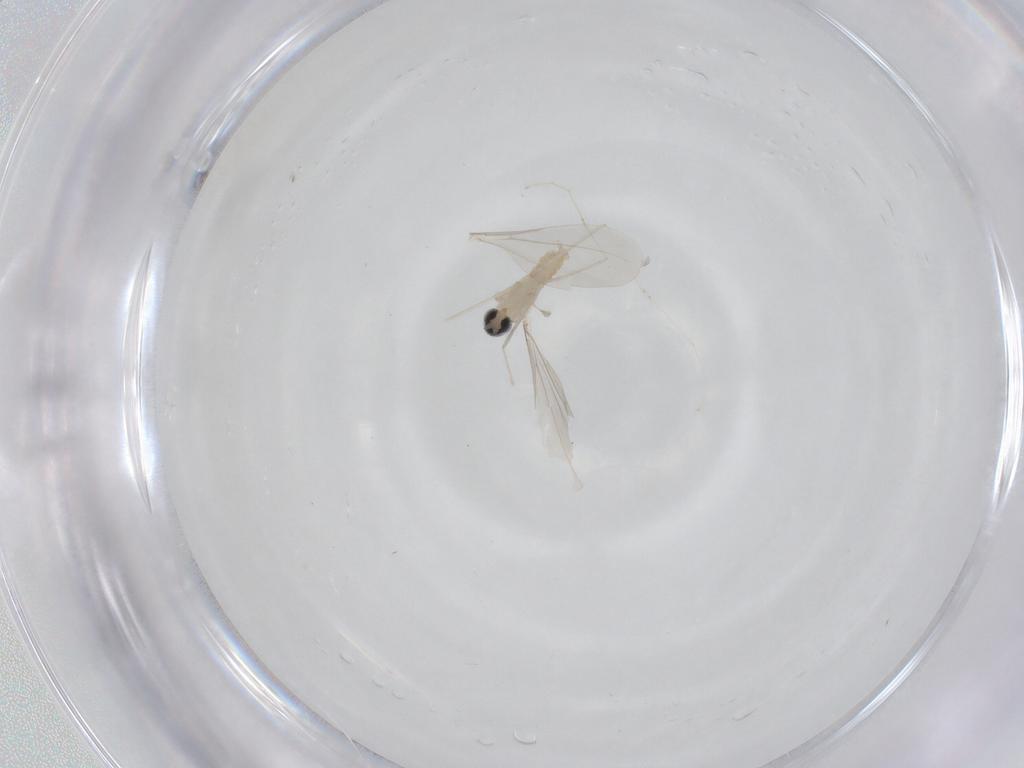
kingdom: Animalia
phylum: Arthropoda
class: Insecta
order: Diptera
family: Cecidomyiidae
